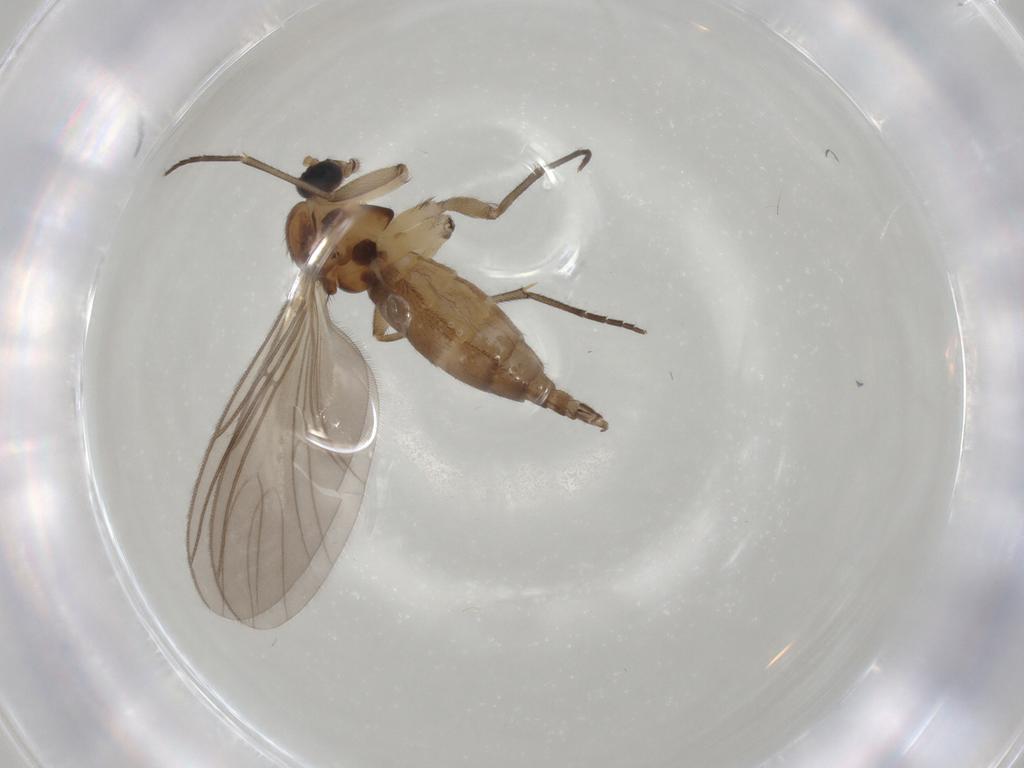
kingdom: Animalia
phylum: Arthropoda
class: Insecta
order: Diptera
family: Sciaridae
